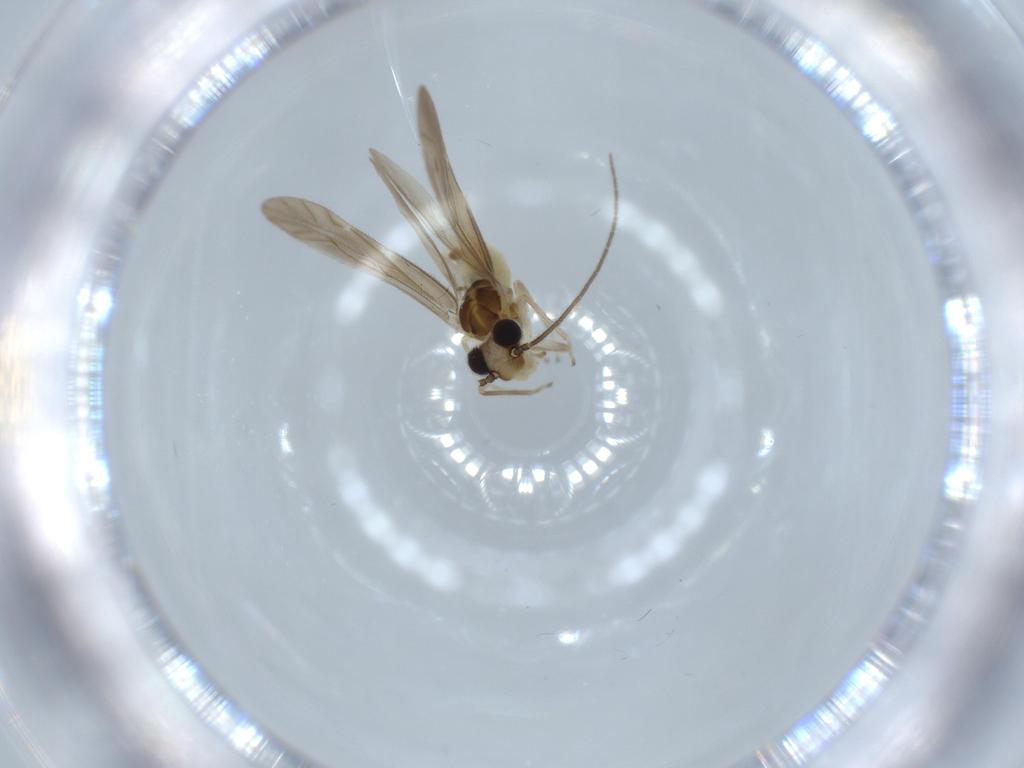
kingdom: Animalia
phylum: Arthropoda
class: Insecta
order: Psocodea
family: Caeciliusidae
